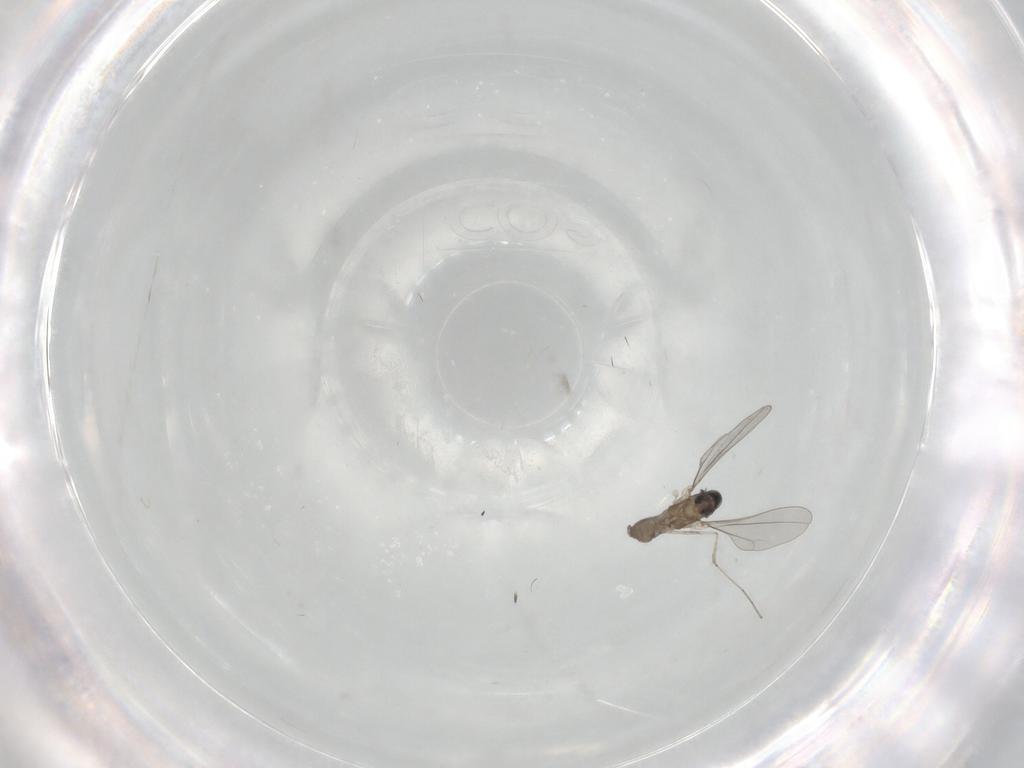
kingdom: Animalia
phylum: Arthropoda
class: Insecta
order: Diptera
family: Cecidomyiidae
